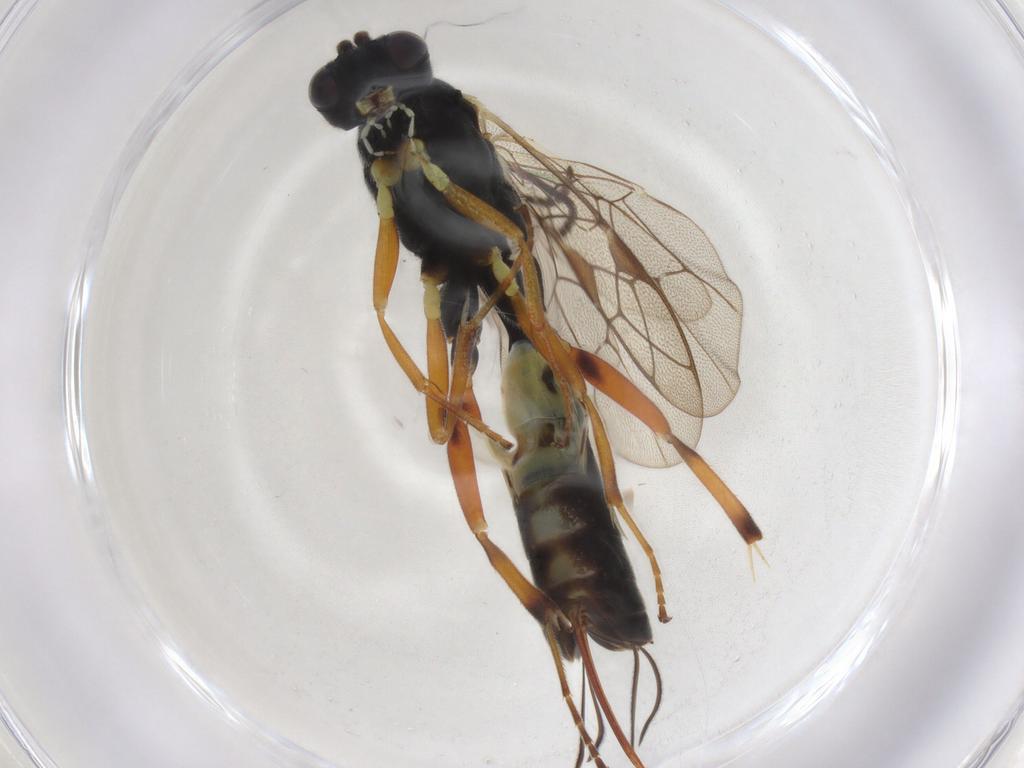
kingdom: Animalia
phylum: Arthropoda
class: Insecta
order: Hymenoptera
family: Ichneumonidae
